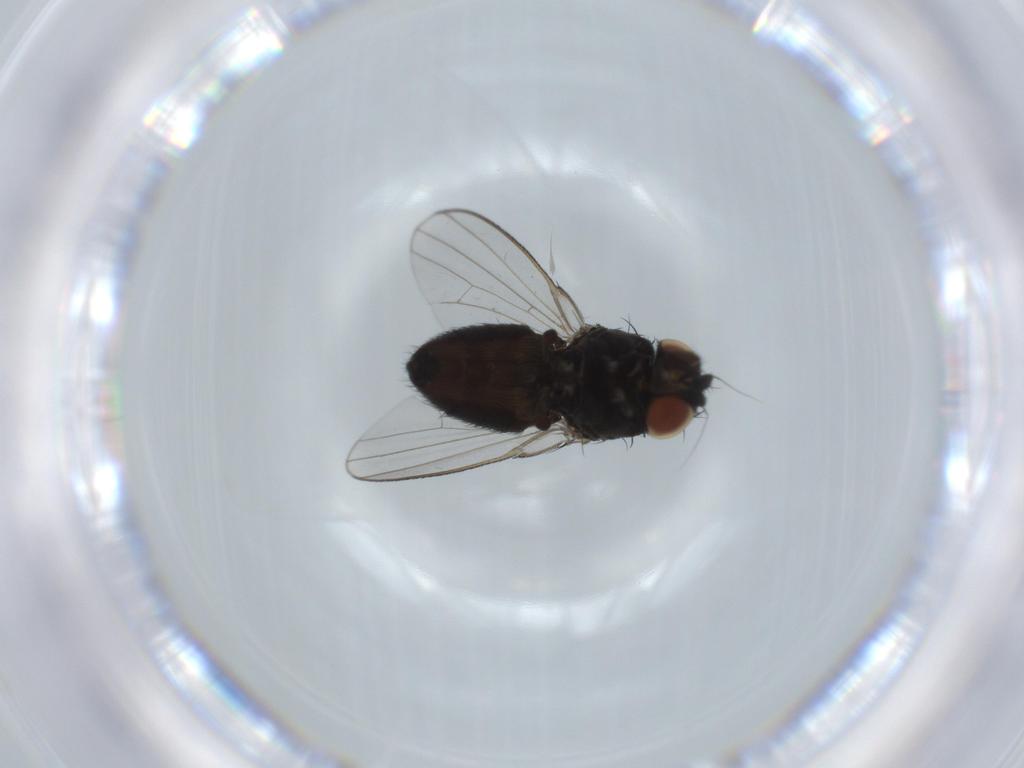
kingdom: Animalia
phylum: Arthropoda
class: Insecta
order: Diptera
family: Milichiidae
